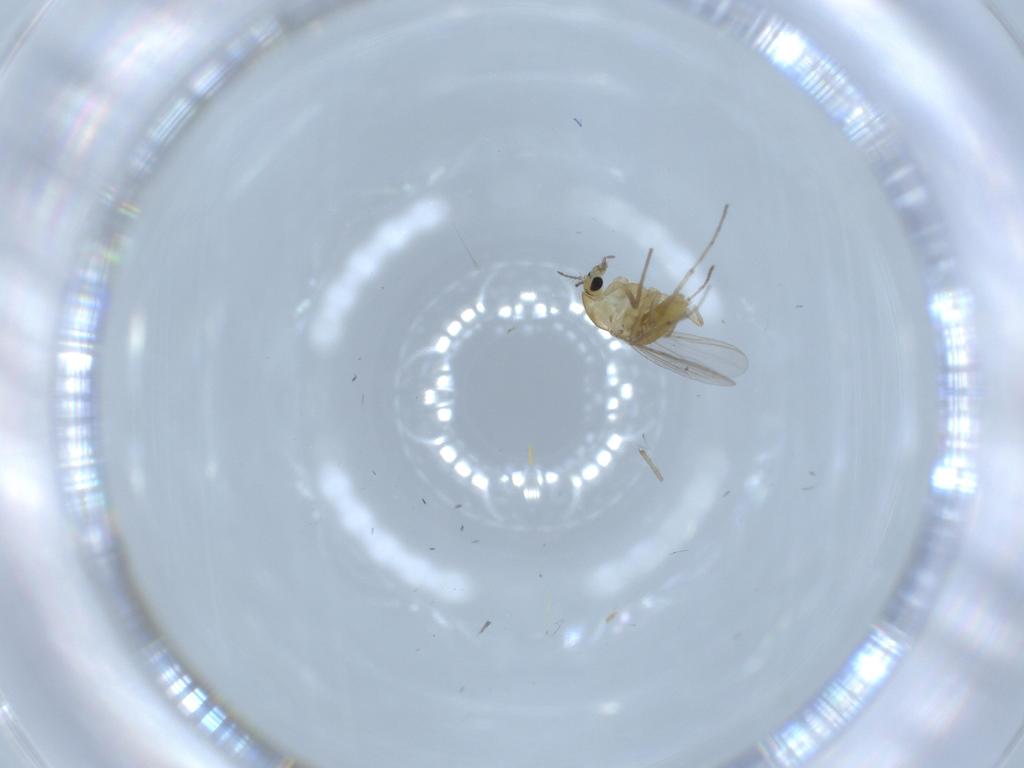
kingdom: Animalia
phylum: Arthropoda
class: Insecta
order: Diptera
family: Chironomidae
